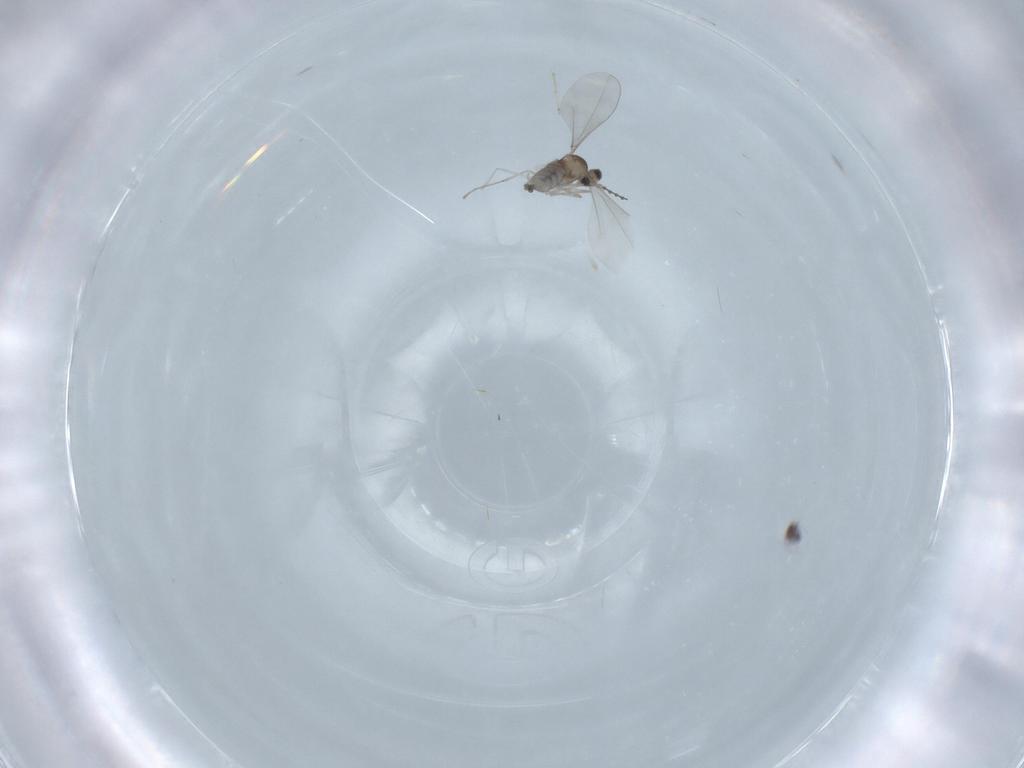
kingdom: Animalia
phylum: Arthropoda
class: Insecta
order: Diptera
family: Cecidomyiidae
